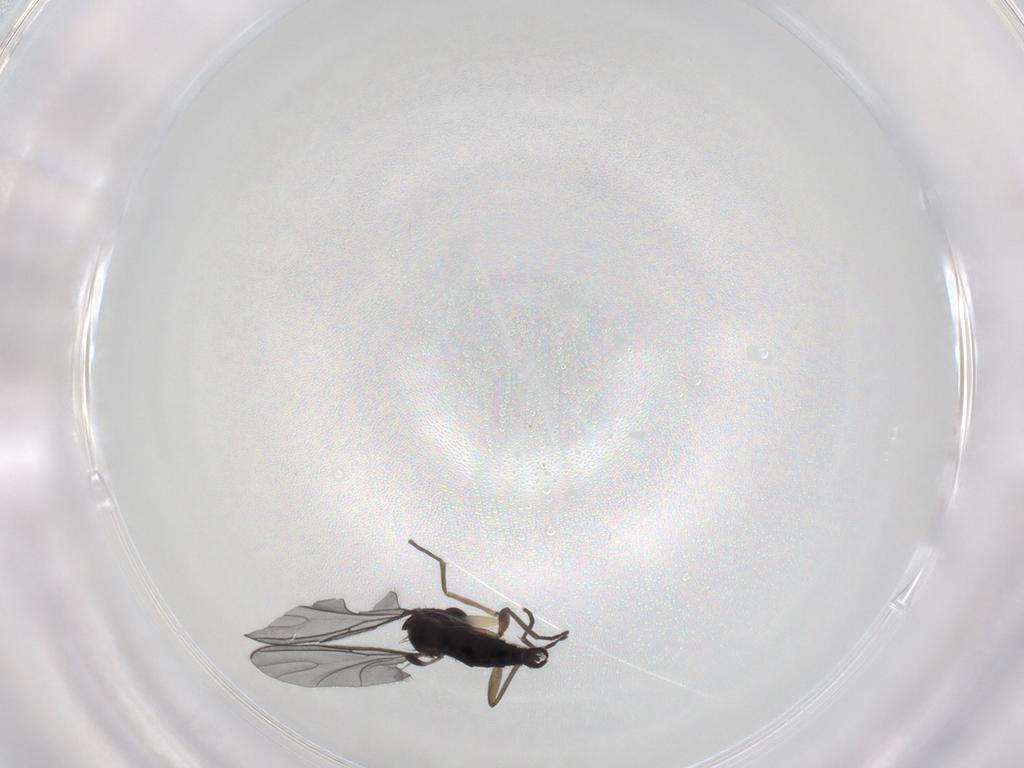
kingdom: Animalia
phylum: Arthropoda
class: Insecta
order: Diptera
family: Sciaridae
